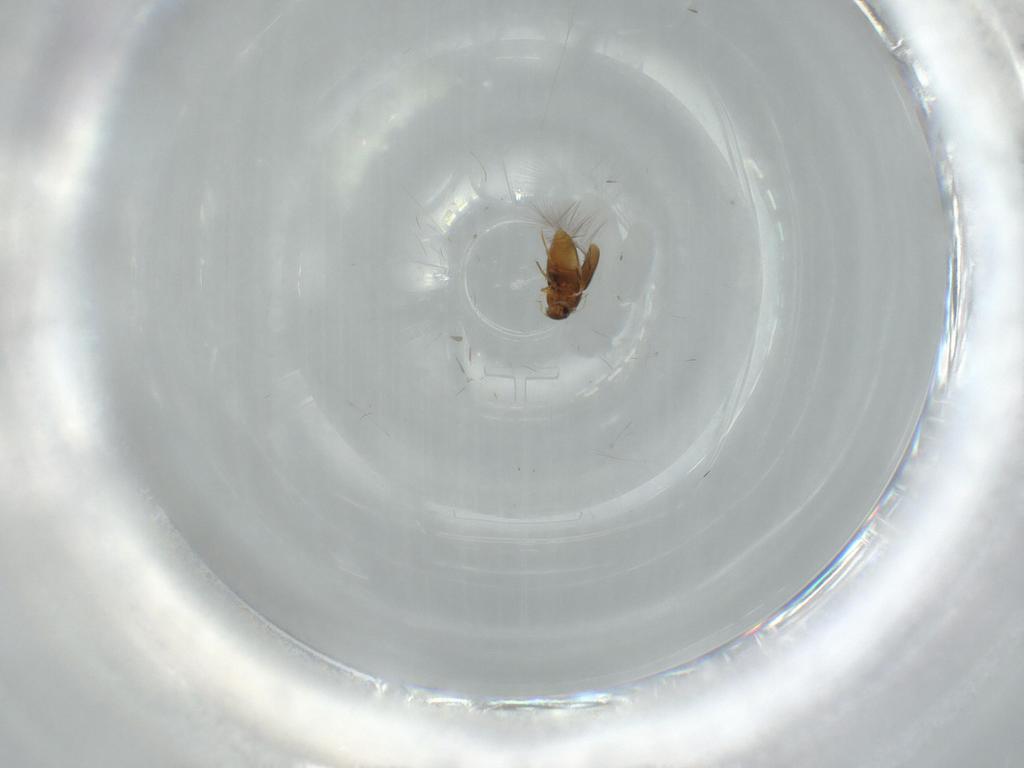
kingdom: Animalia
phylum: Arthropoda
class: Insecta
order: Coleoptera
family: Ptiliidae
